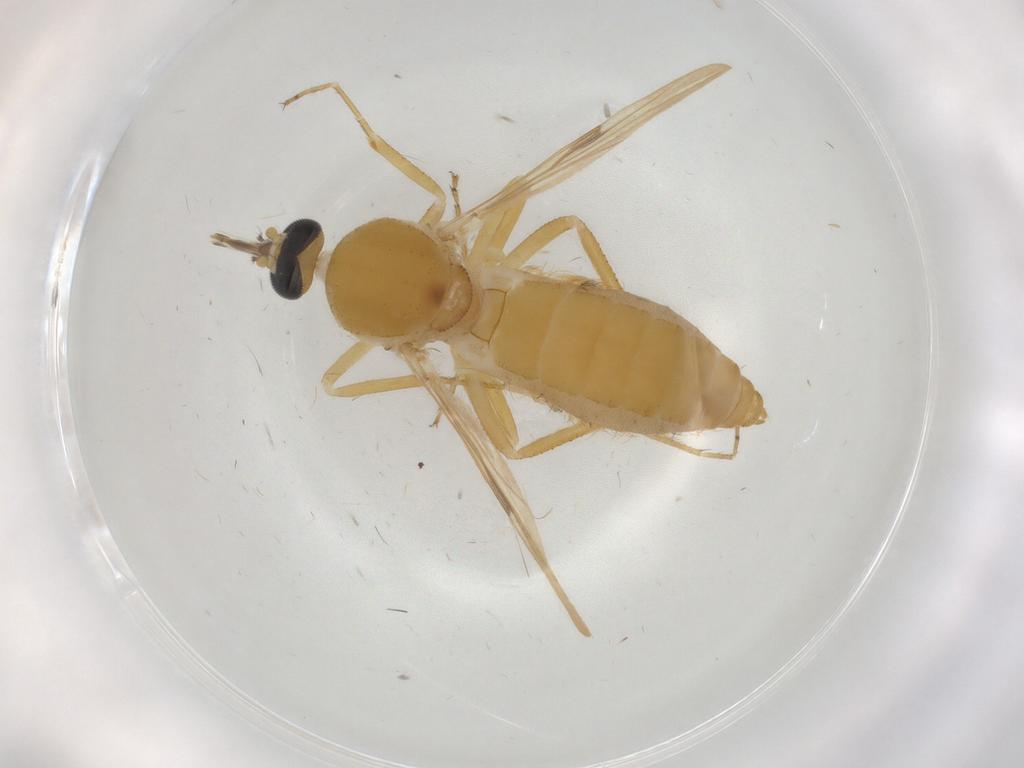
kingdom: Animalia
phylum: Arthropoda
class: Insecta
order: Diptera
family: Ceratopogonidae
